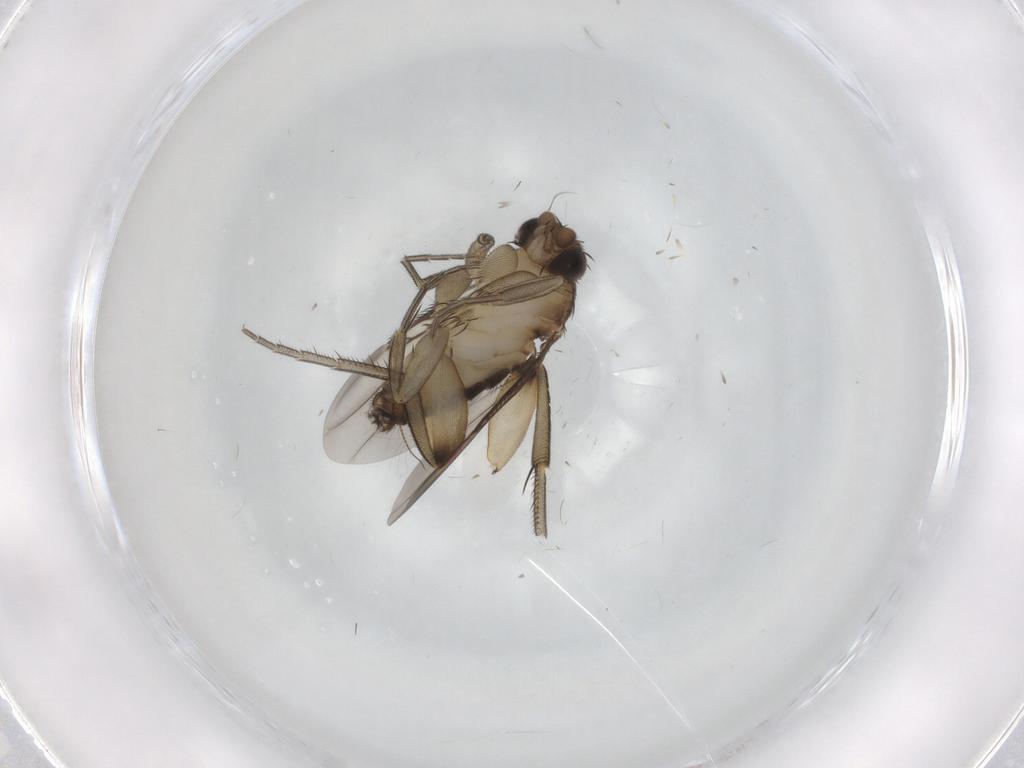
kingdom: Animalia
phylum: Arthropoda
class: Insecta
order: Diptera
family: Phoridae
